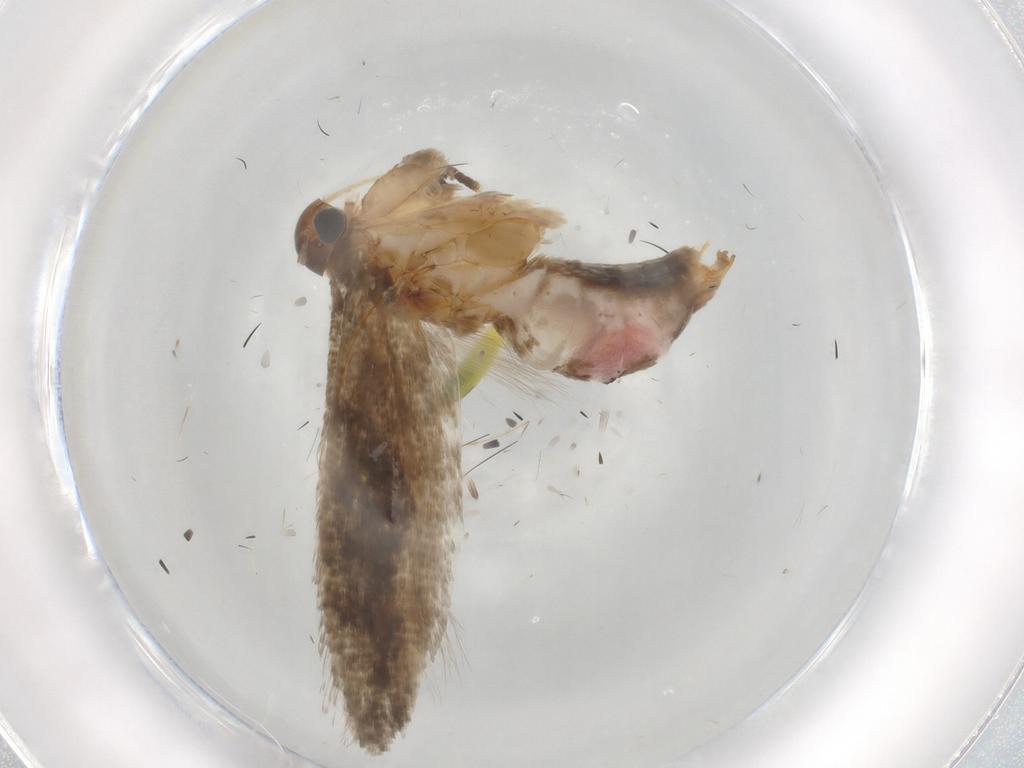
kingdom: Animalia
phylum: Arthropoda
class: Insecta
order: Lepidoptera
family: Gelechiidae
